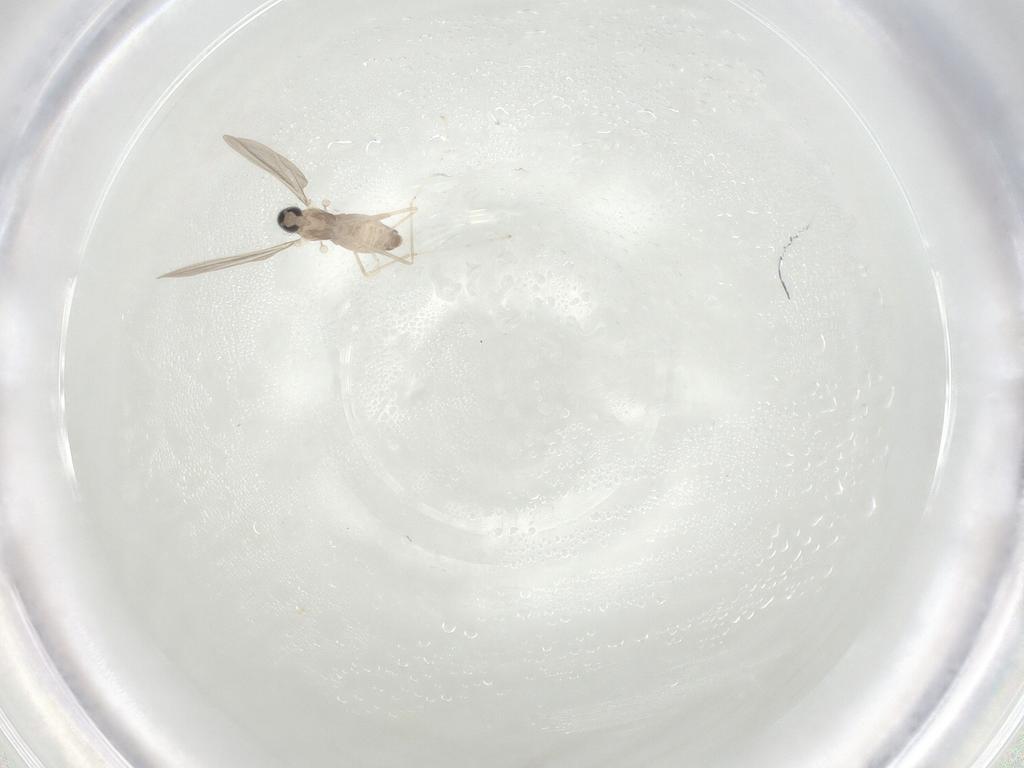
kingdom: Animalia
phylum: Arthropoda
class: Insecta
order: Diptera
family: Cecidomyiidae
